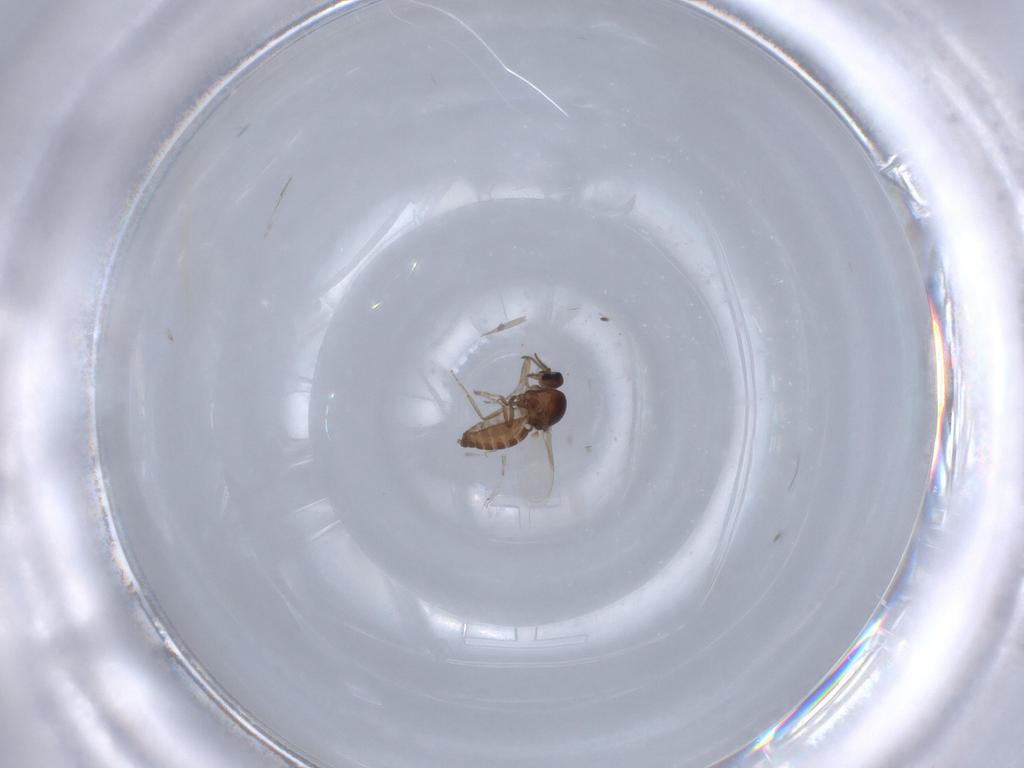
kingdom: Animalia
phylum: Arthropoda
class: Insecta
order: Diptera
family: Ceratopogonidae
